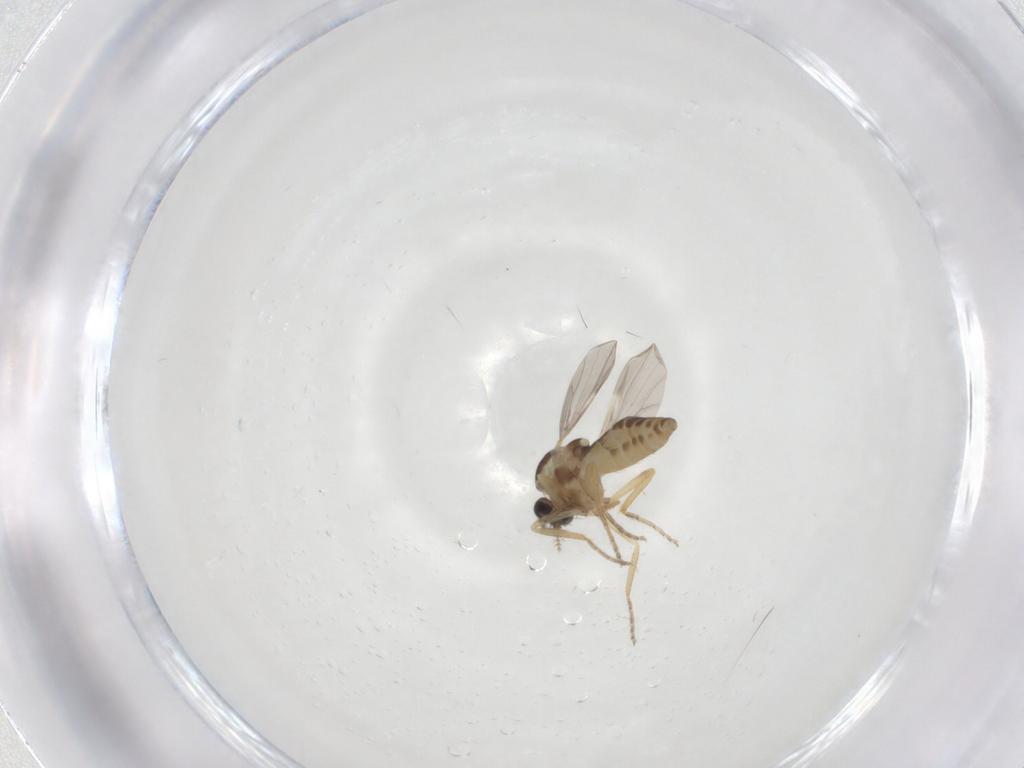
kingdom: Animalia
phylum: Arthropoda
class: Insecta
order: Diptera
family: Ceratopogonidae
